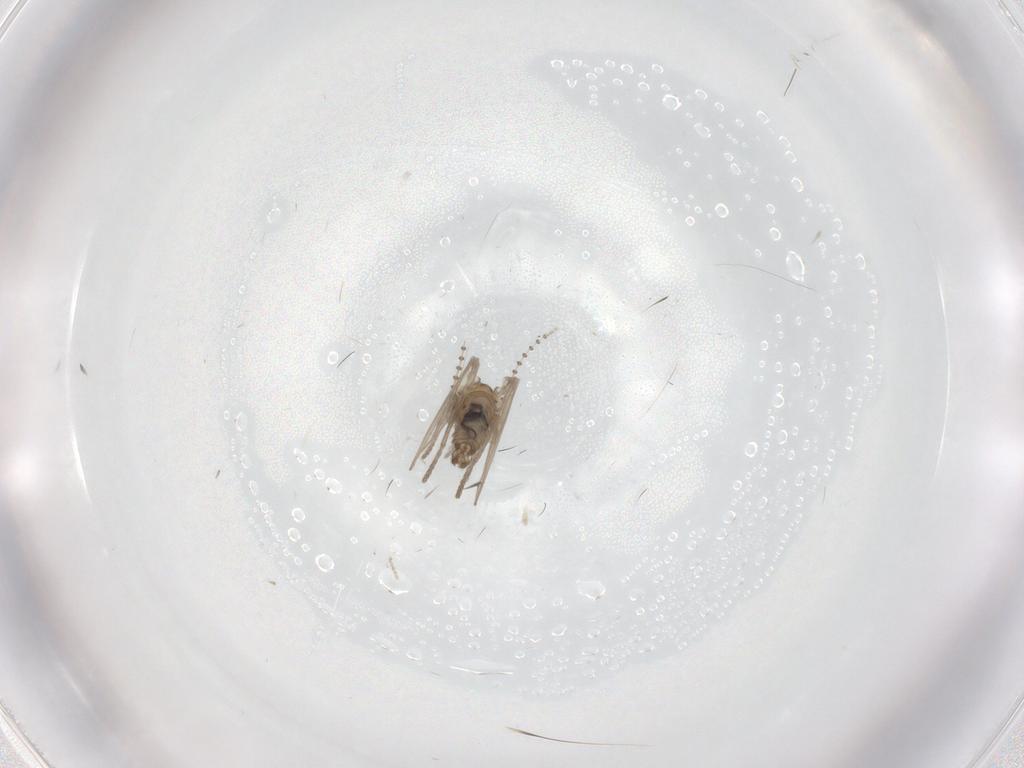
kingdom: Animalia
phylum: Arthropoda
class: Insecta
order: Diptera
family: Psychodidae
